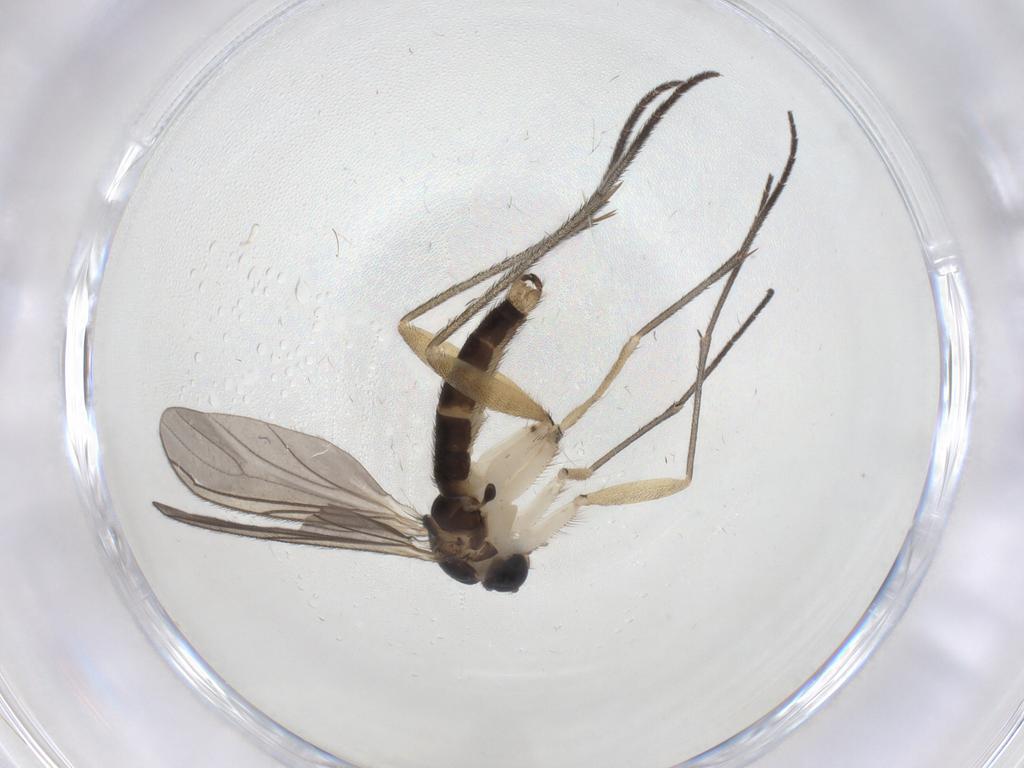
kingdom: Animalia
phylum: Arthropoda
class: Insecta
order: Diptera
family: Sciaridae
